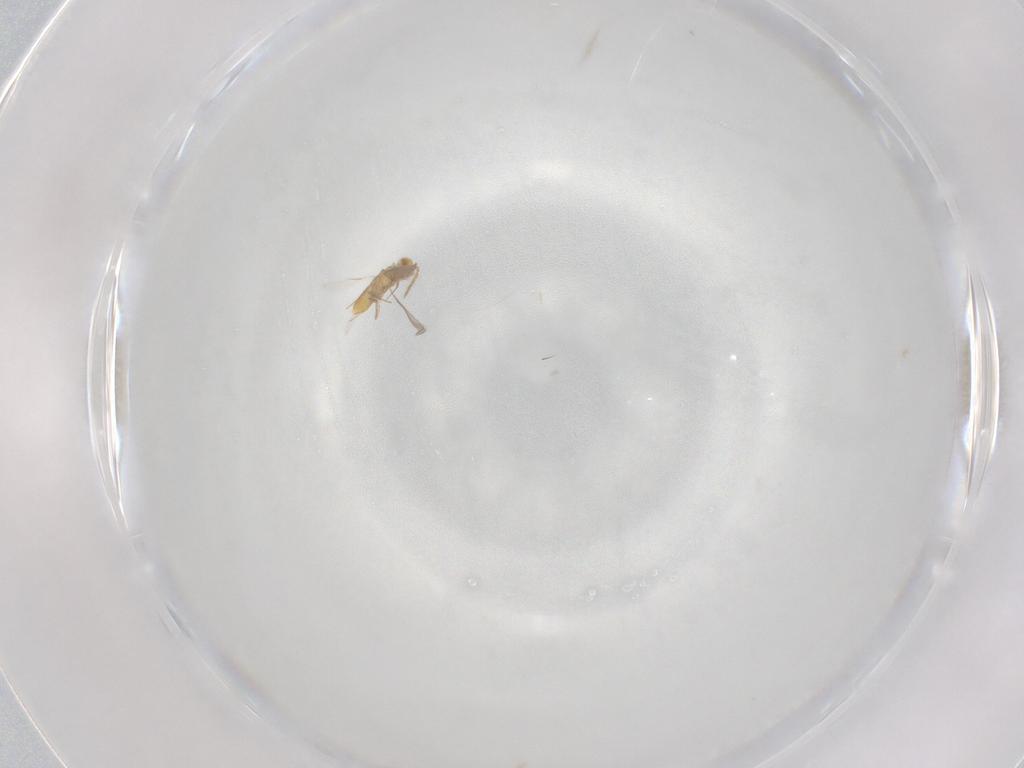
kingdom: Animalia
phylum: Arthropoda
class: Insecta
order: Hymenoptera
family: Aphelinidae
